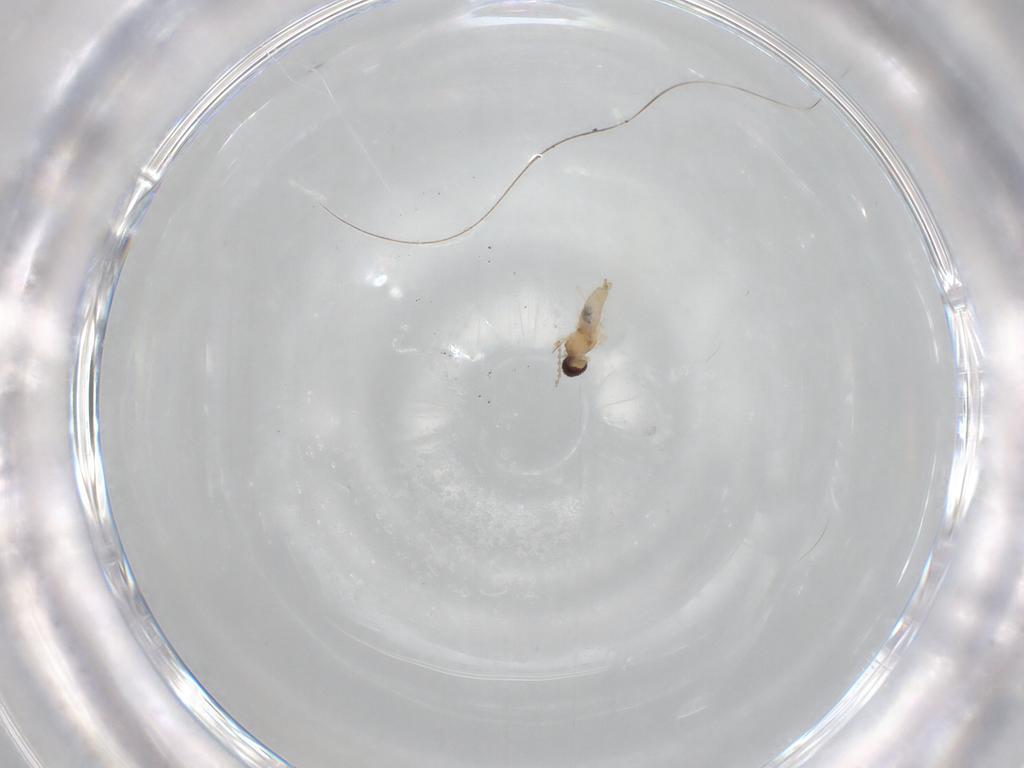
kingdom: Animalia
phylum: Arthropoda
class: Insecta
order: Diptera
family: Cecidomyiidae
